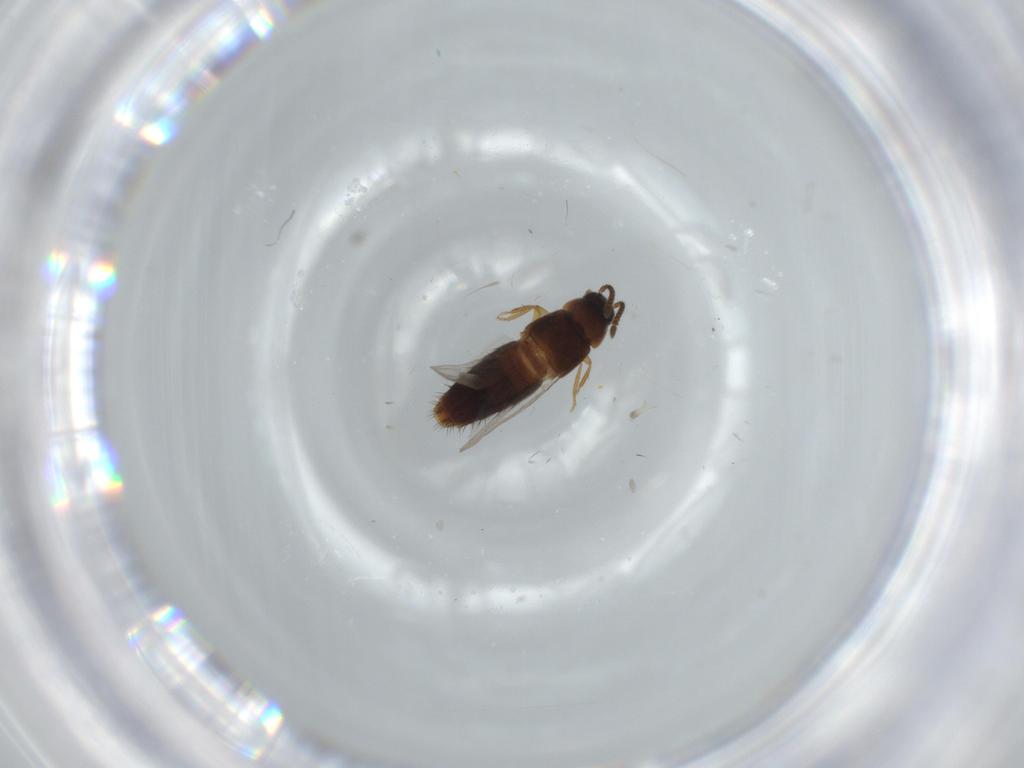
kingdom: Animalia
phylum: Arthropoda
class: Insecta
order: Coleoptera
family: Staphylinidae
